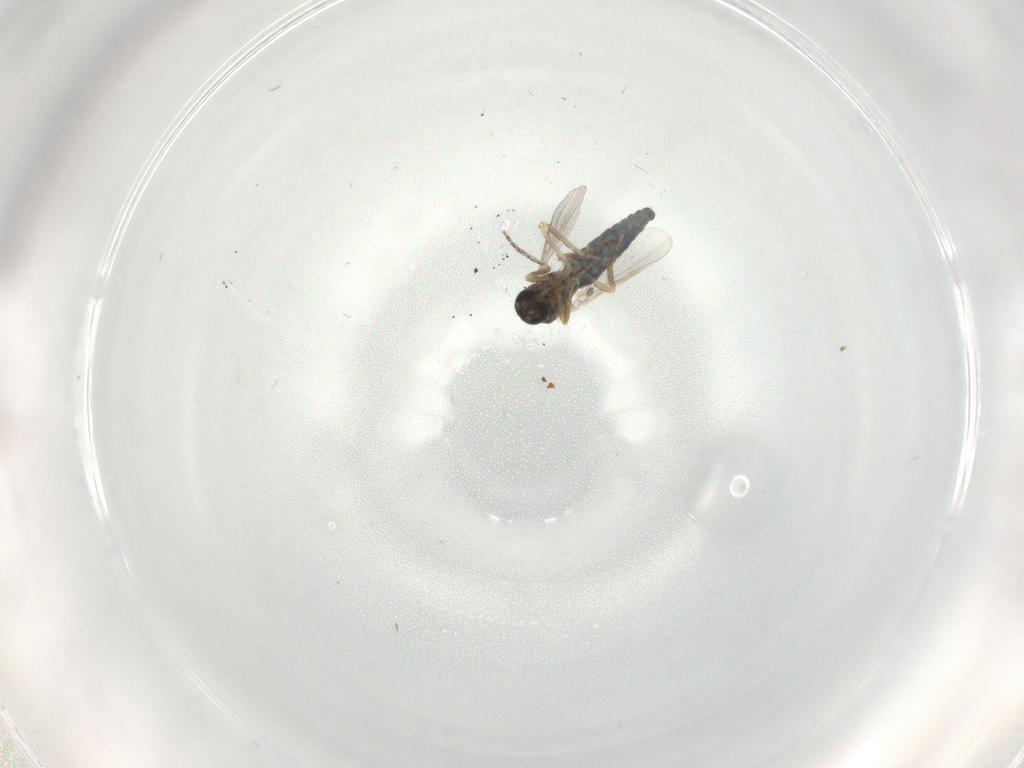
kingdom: Animalia
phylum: Arthropoda
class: Insecta
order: Diptera
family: Ceratopogonidae
